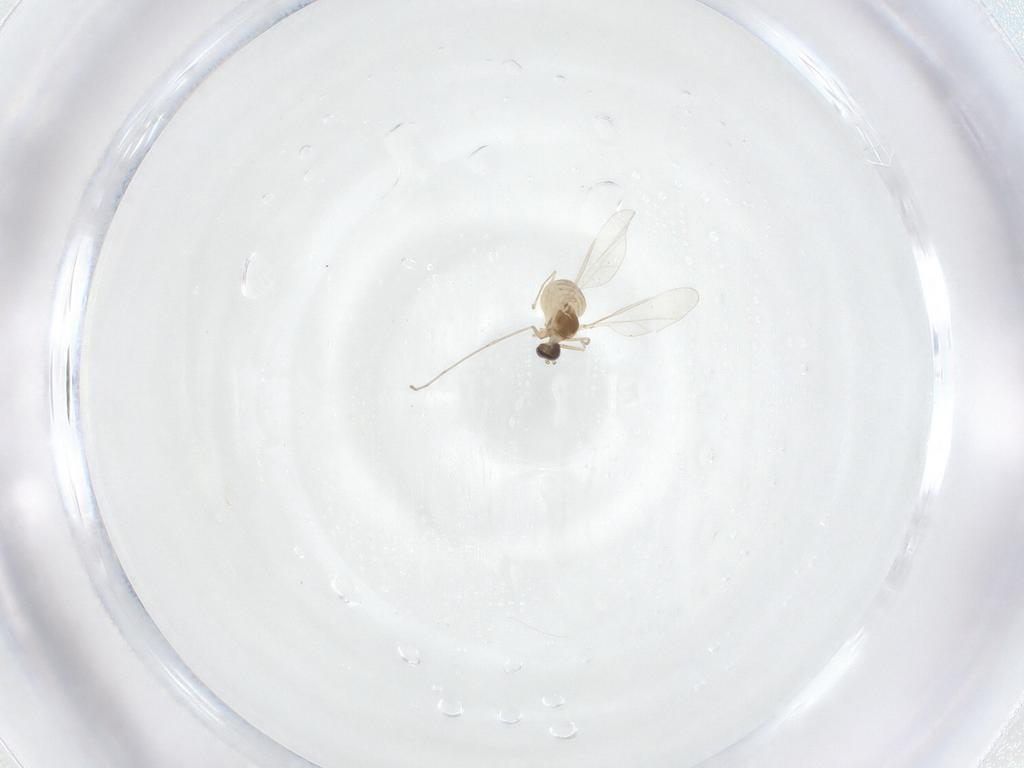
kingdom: Animalia
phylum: Arthropoda
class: Insecta
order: Diptera
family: Cecidomyiidae
